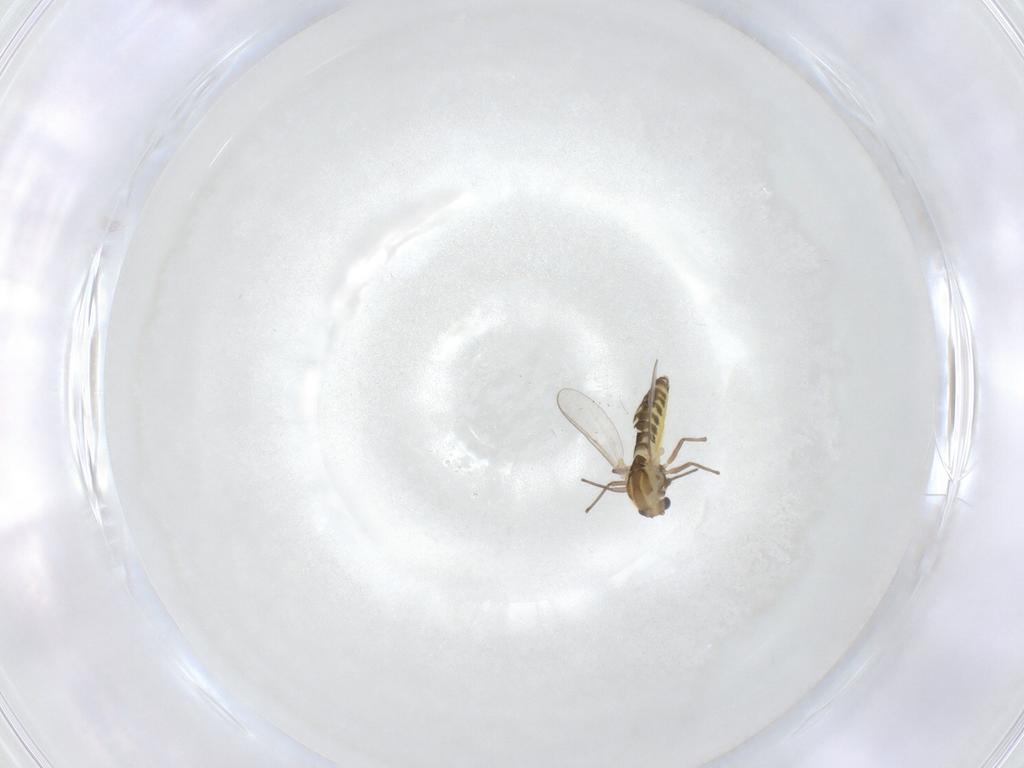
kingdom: Animalia
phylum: Arthropoda
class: Insecta
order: Diptera
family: Chironomidae
